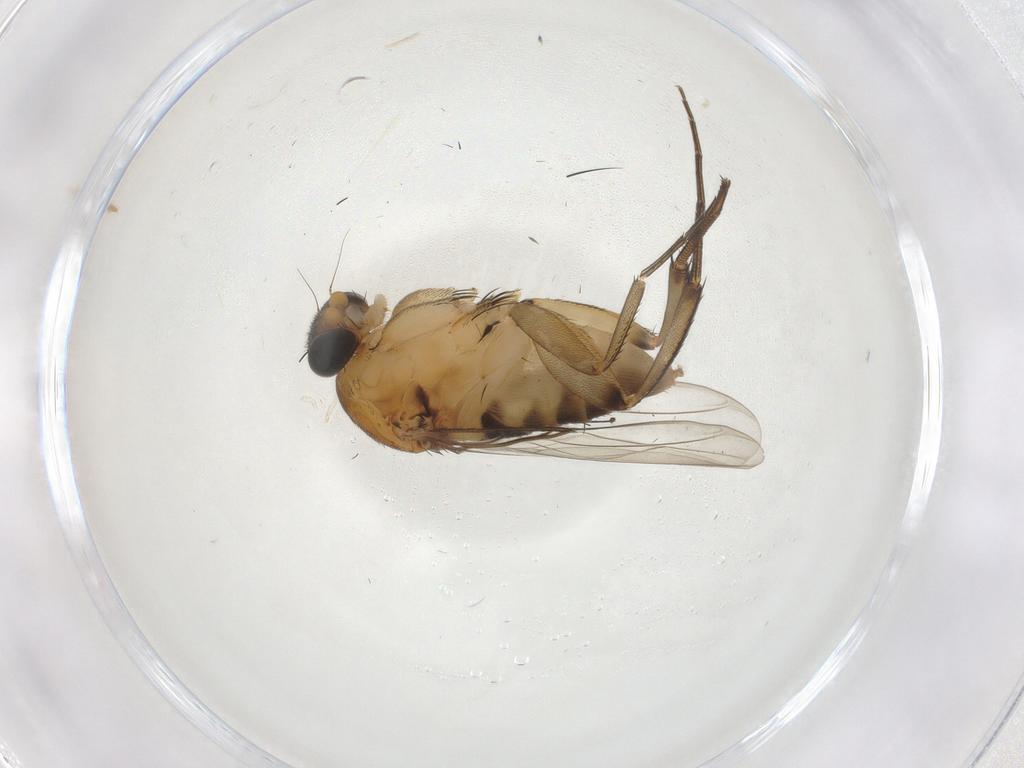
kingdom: Animalia
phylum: Arthropoda
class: Insecta
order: Diptera
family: Phoridae
